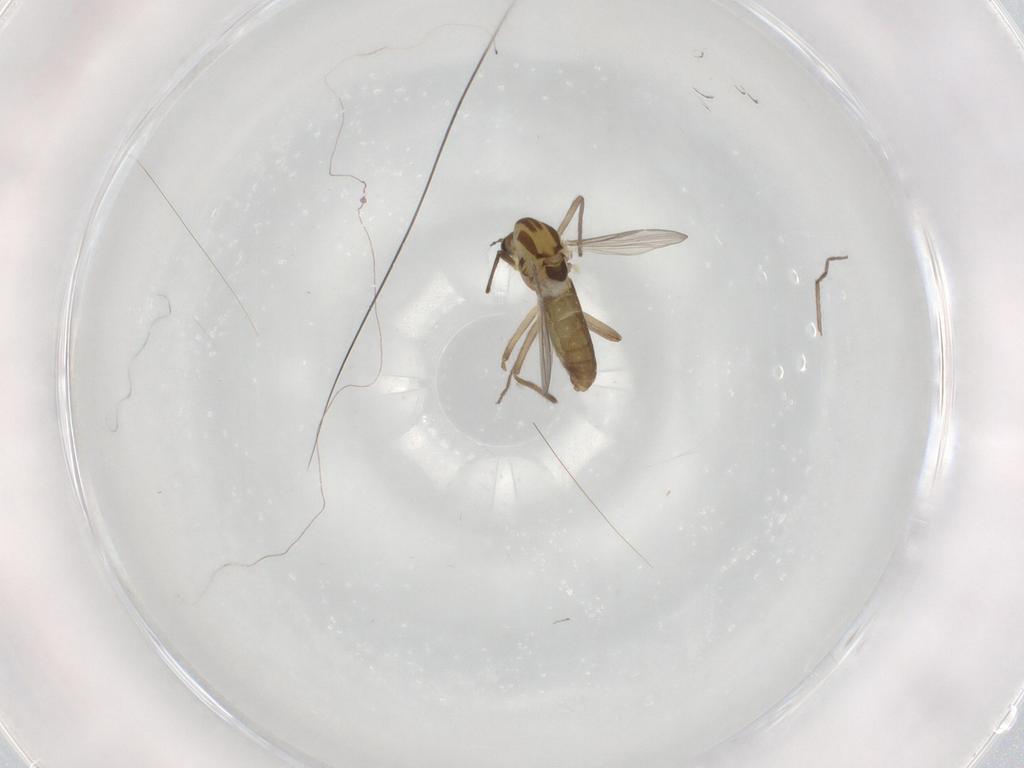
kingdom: Animalia
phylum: Arthropoda
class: Insecta
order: Diptera
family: Chironomidae
